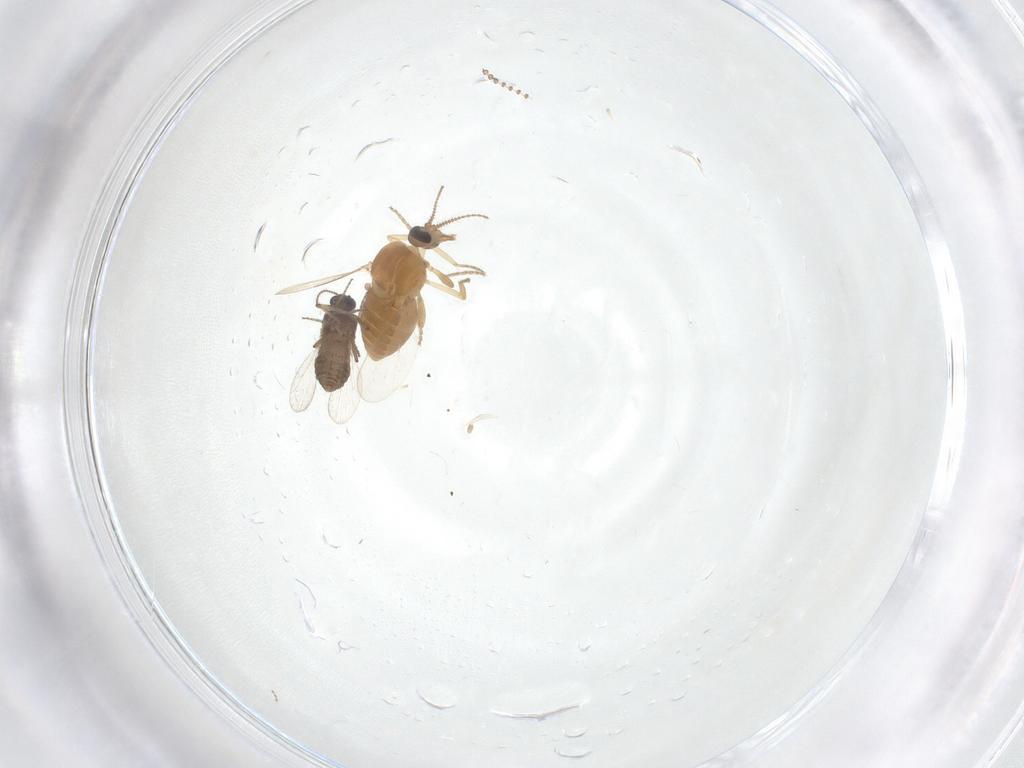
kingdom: Animalia
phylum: Arthropoda
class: Insecta
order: Diptera
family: Ceratopogonidae
